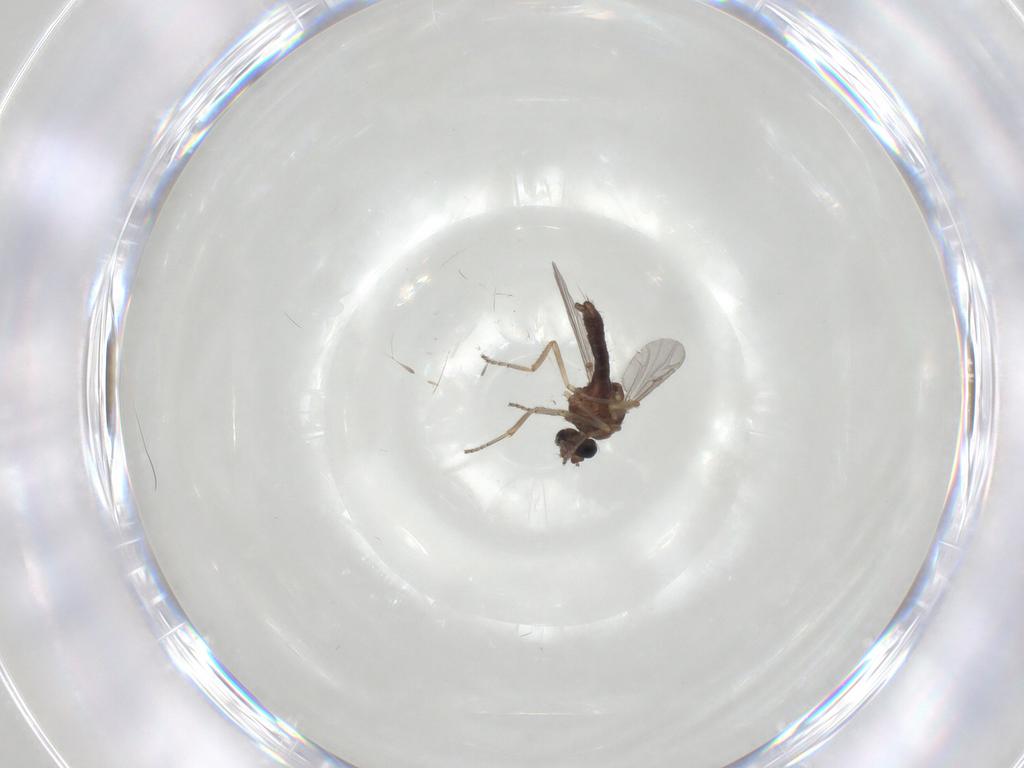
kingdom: Animalia
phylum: Arthropoda
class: Insecta
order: Diptera
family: Ceratopogonidae
